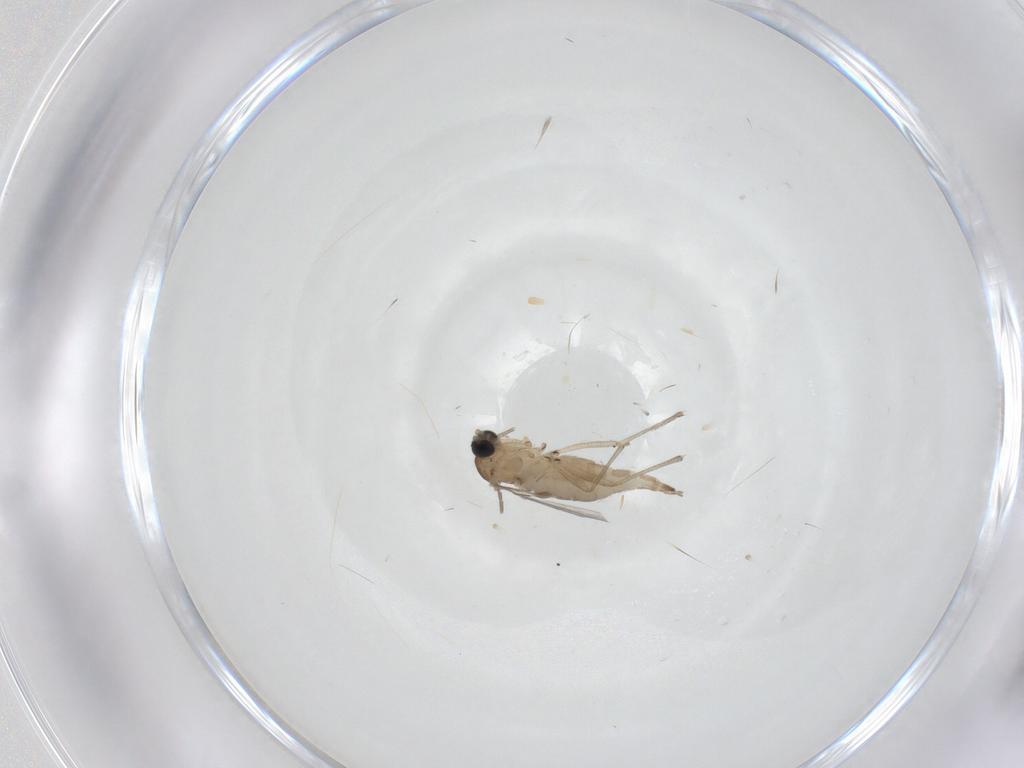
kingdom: Animalia
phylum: Arthropoda
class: Insecta
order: Diptera
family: Sciaridae
